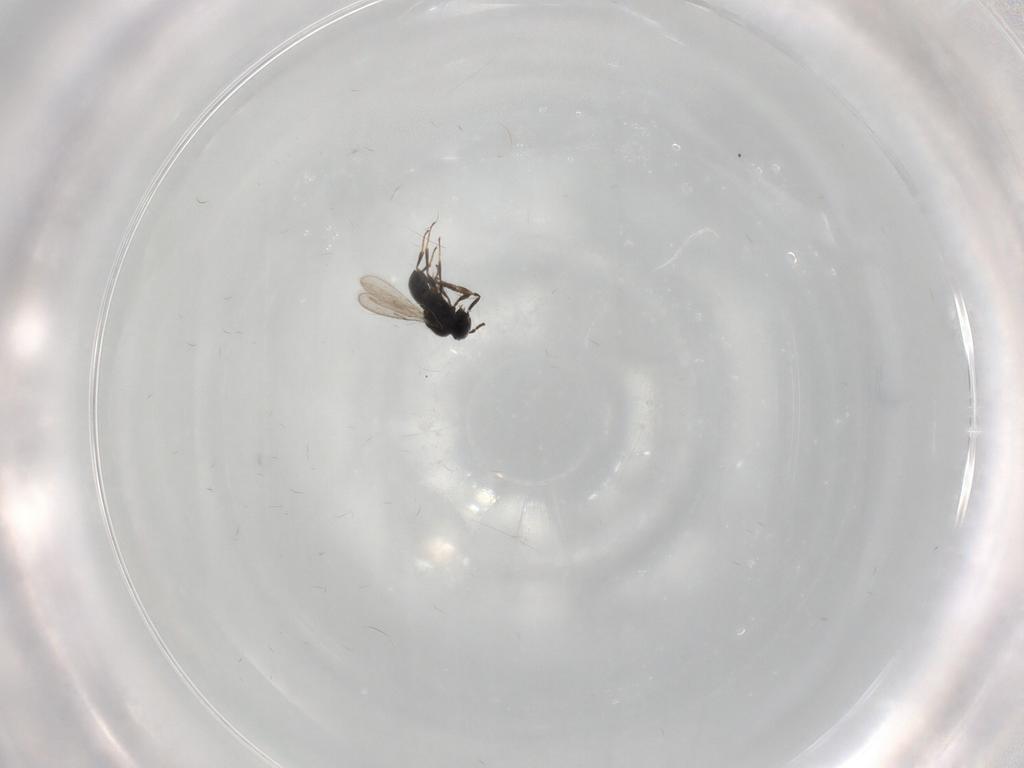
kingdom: Animalia
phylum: Arthropoda
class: Insecta
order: Hymenoptera
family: Scelionidae
